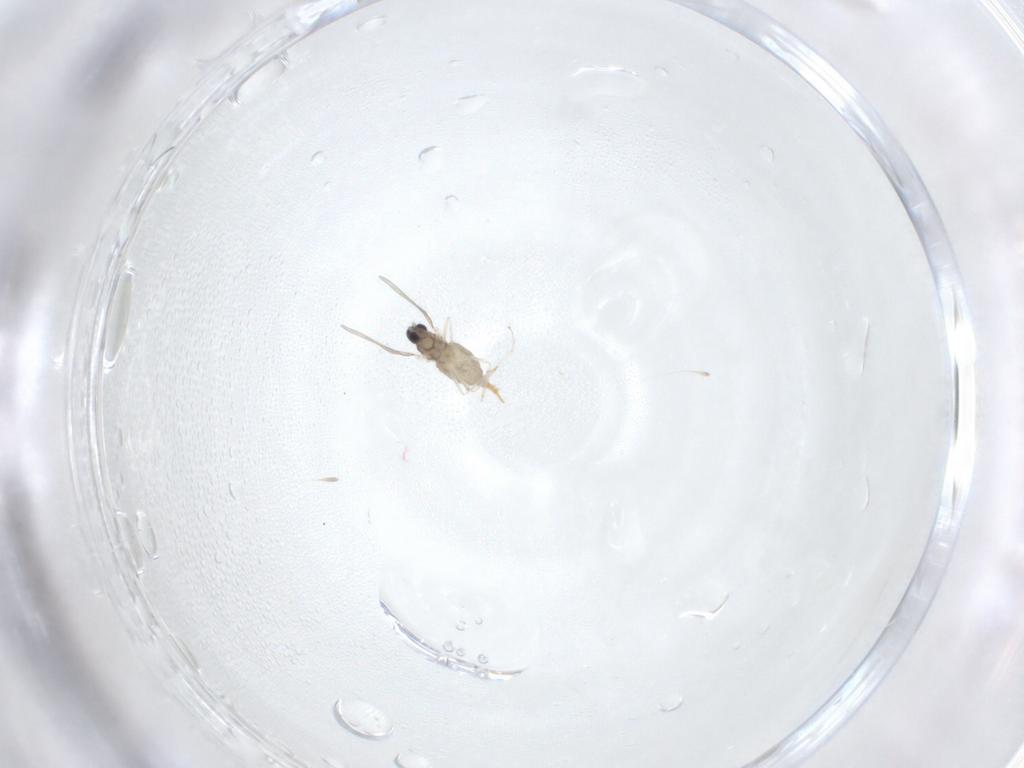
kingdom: Animalia
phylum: Arthropoda
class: Insecta
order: Diptera
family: Cecidomyiidae
